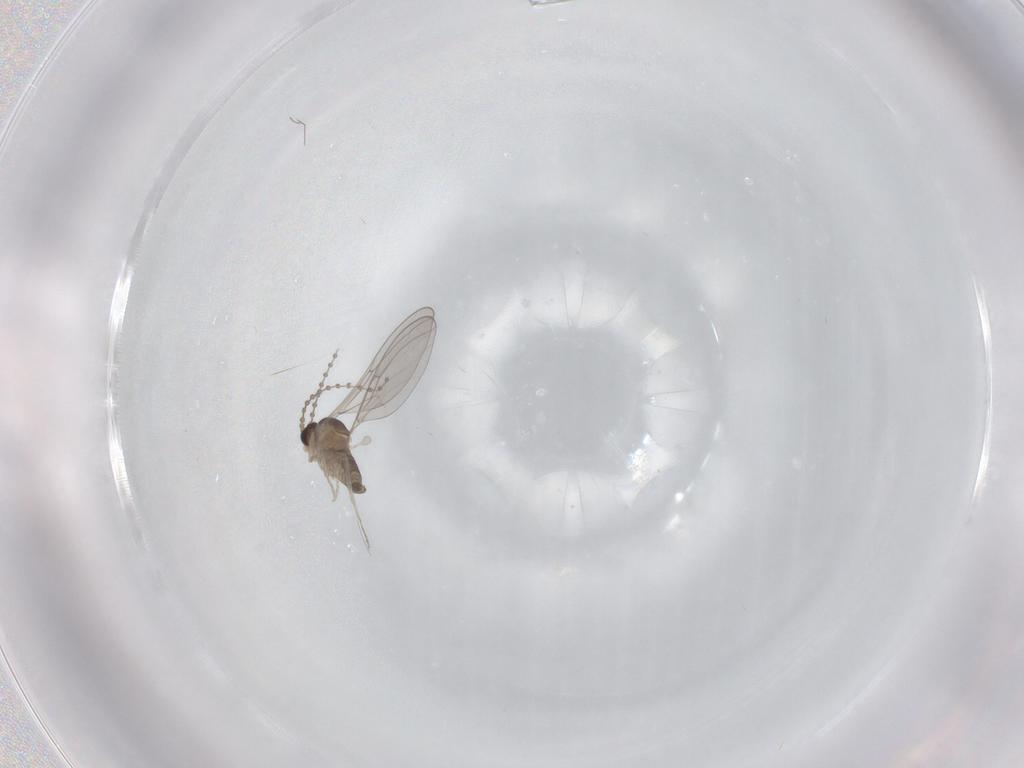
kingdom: Animalia
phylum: Arthropoda
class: Insecta
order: Diptera
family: Cecidomyiidae
